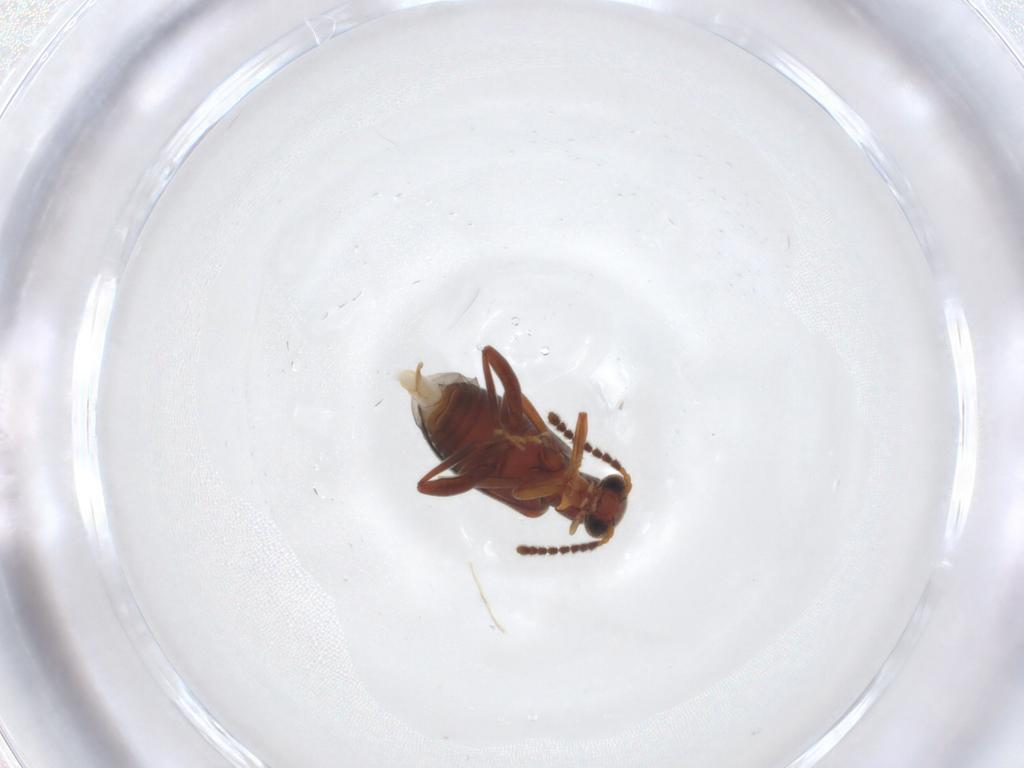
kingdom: Animalia
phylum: Arthropoda
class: Insecta
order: Coleoptera
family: Aderidae
